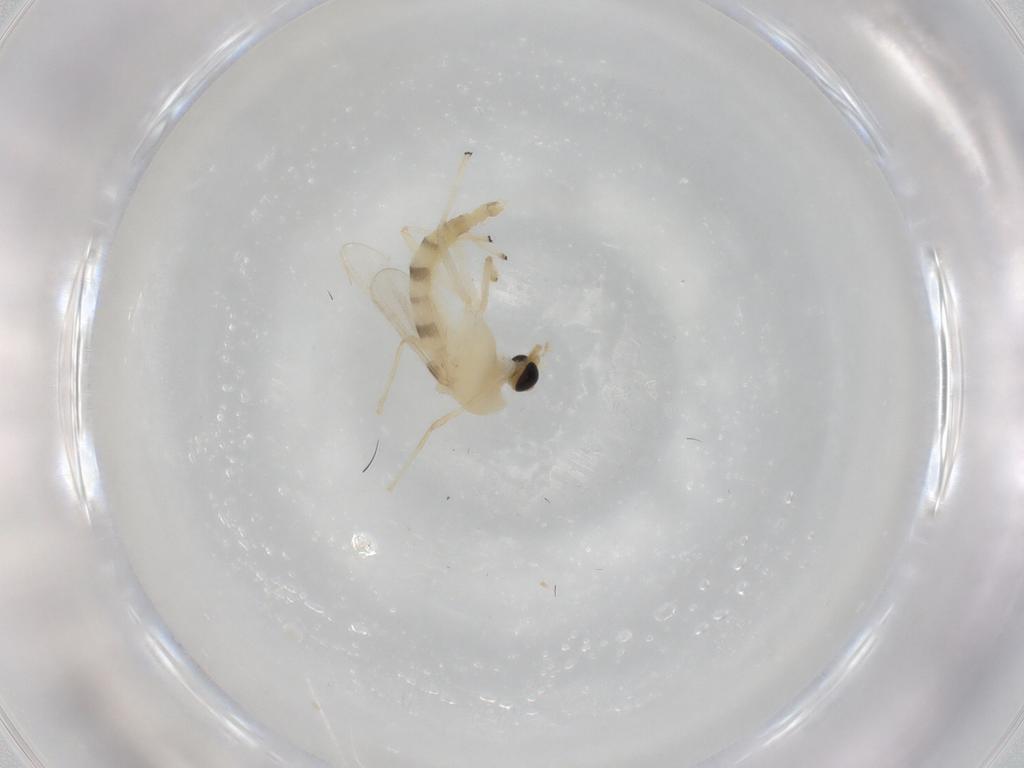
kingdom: Animalia
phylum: Arthropoda
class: Insecta
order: Diptera
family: Chironomidae
